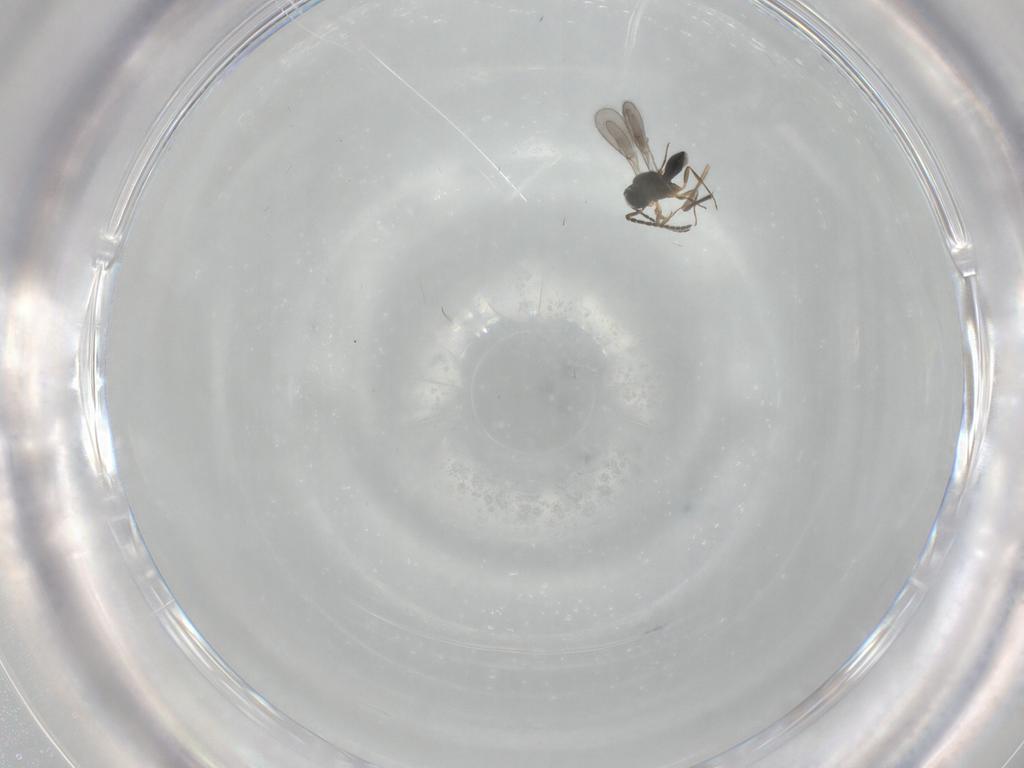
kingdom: Animalia
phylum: Arthropoda
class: Insecta
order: Hymenoptera
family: Scelionidae
